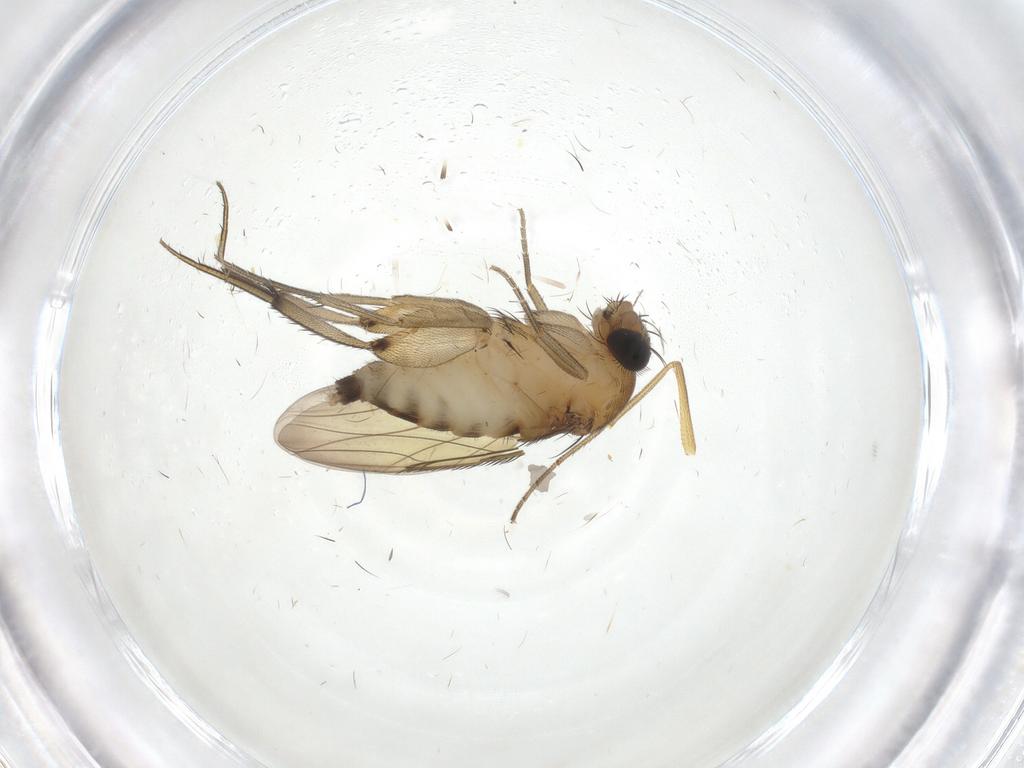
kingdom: Animalia
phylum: Arthropoda
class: Insecta
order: Diptera
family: Phoridae
